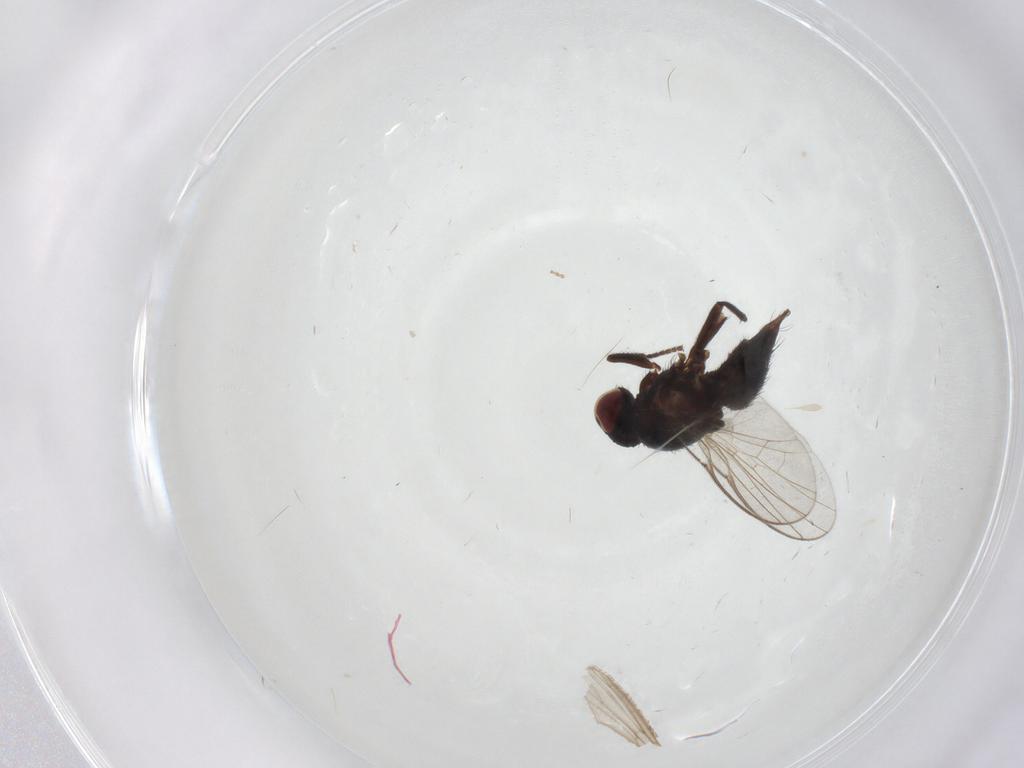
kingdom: Animalia
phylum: Arthropoda
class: Insecta
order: Diptera
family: Agromyzidae
